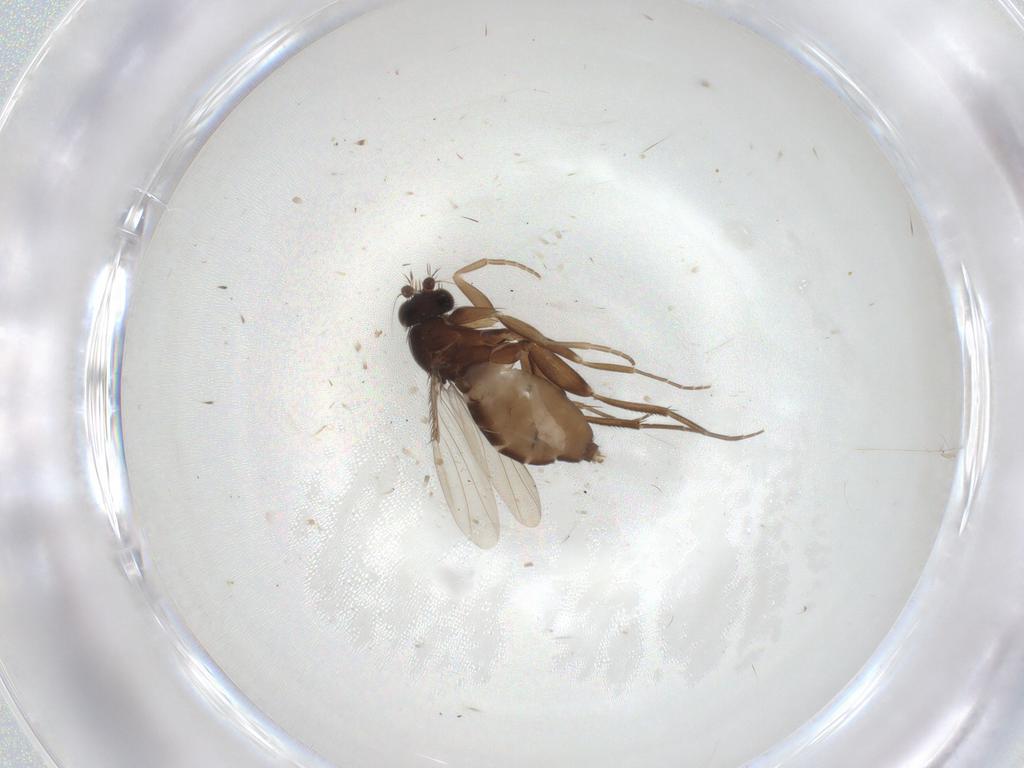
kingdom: Animalia
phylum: Arthropoda
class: Insecta
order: Diptera
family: Phoridae
